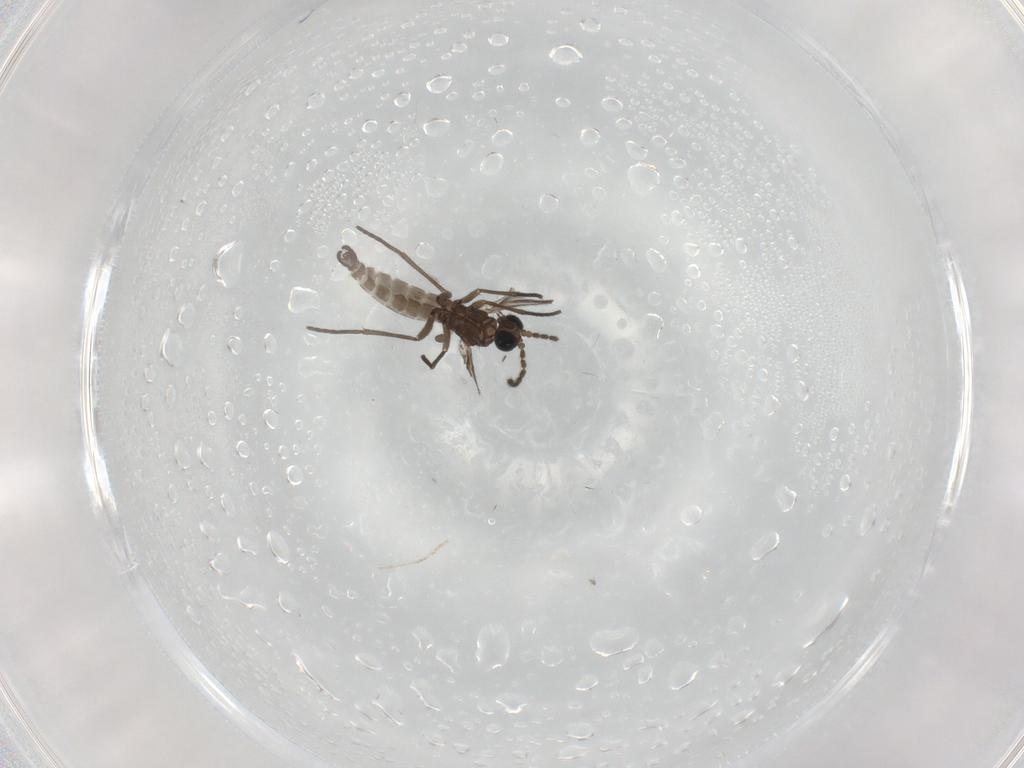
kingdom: Animalia
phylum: Arthropoda
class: Insecta
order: Diptera
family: Sciaridae
